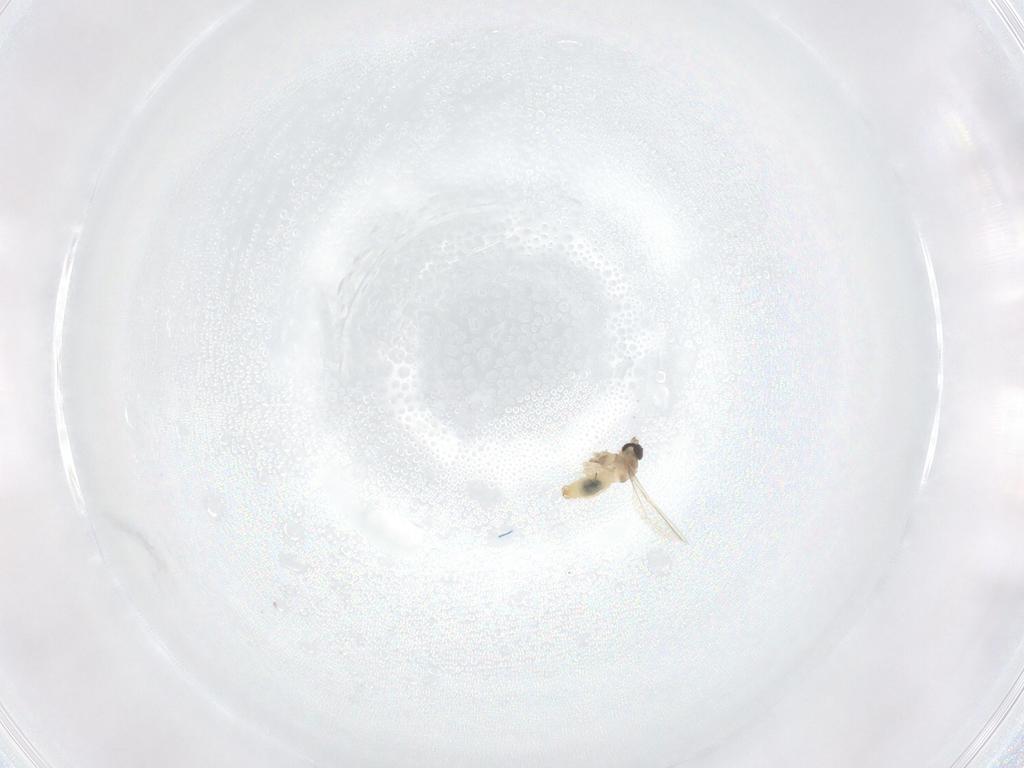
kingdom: Animalia
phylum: Arthropoda
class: Insecta
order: Diptera
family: Cecidomyiidae
